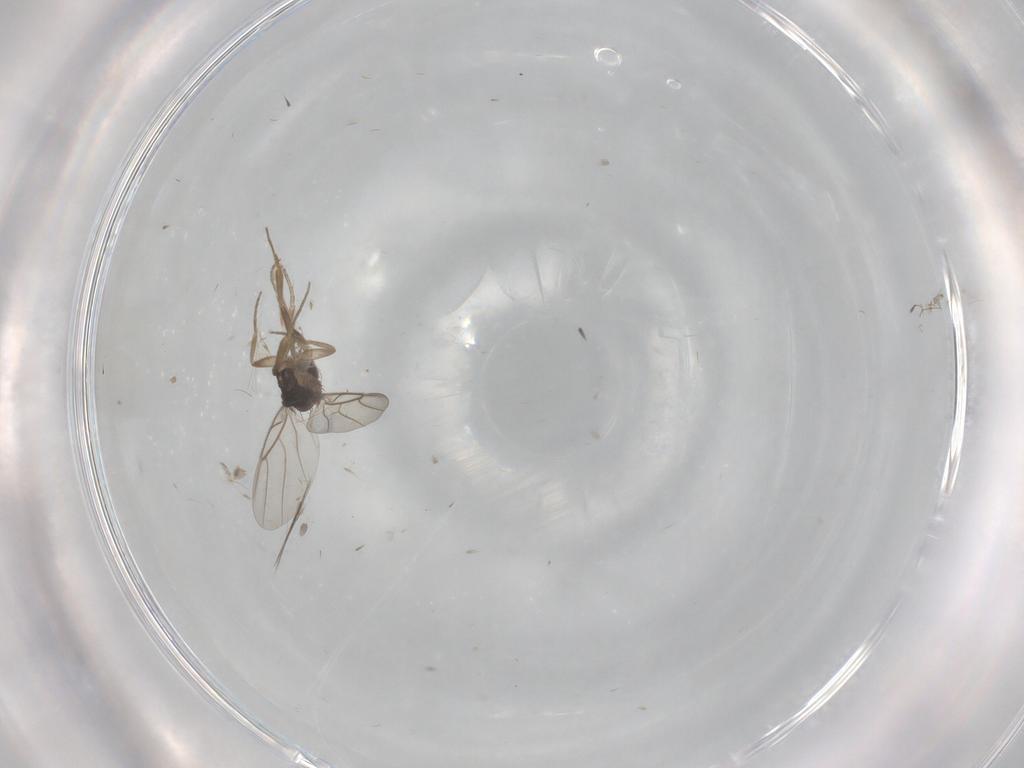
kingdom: Animalia
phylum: Arthropoda
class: Insecta
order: Diptera
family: Phoridae
